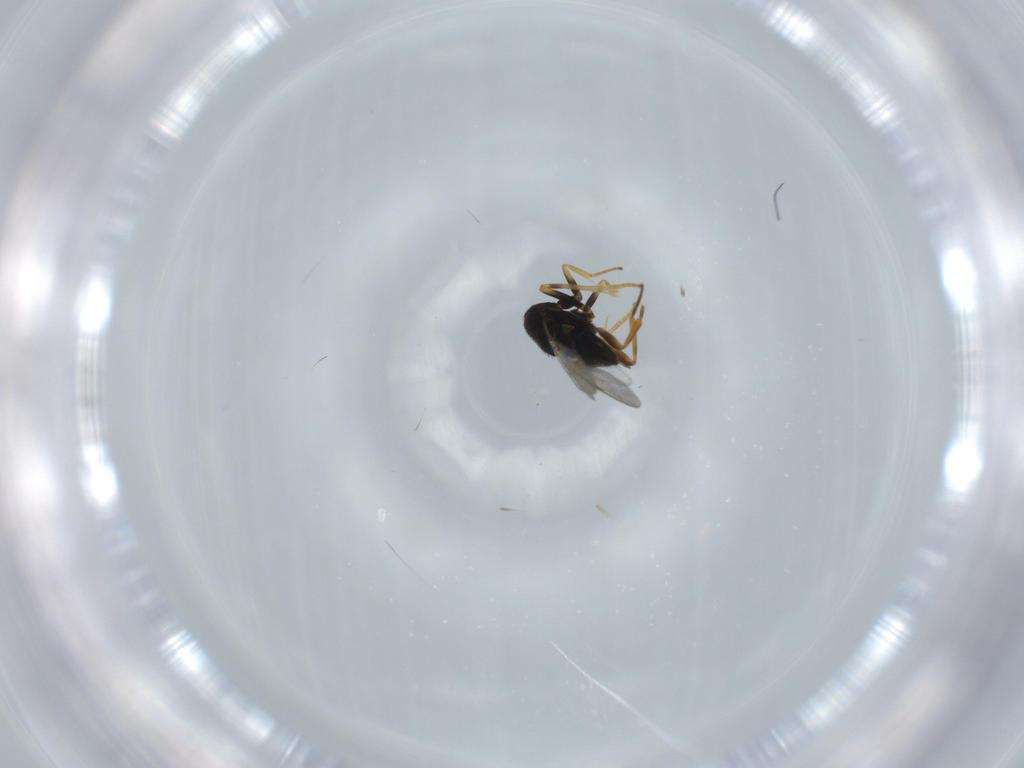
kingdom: Animalia
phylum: Arthropoda
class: Insecta
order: Hymenoptera
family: Encyrtidae
